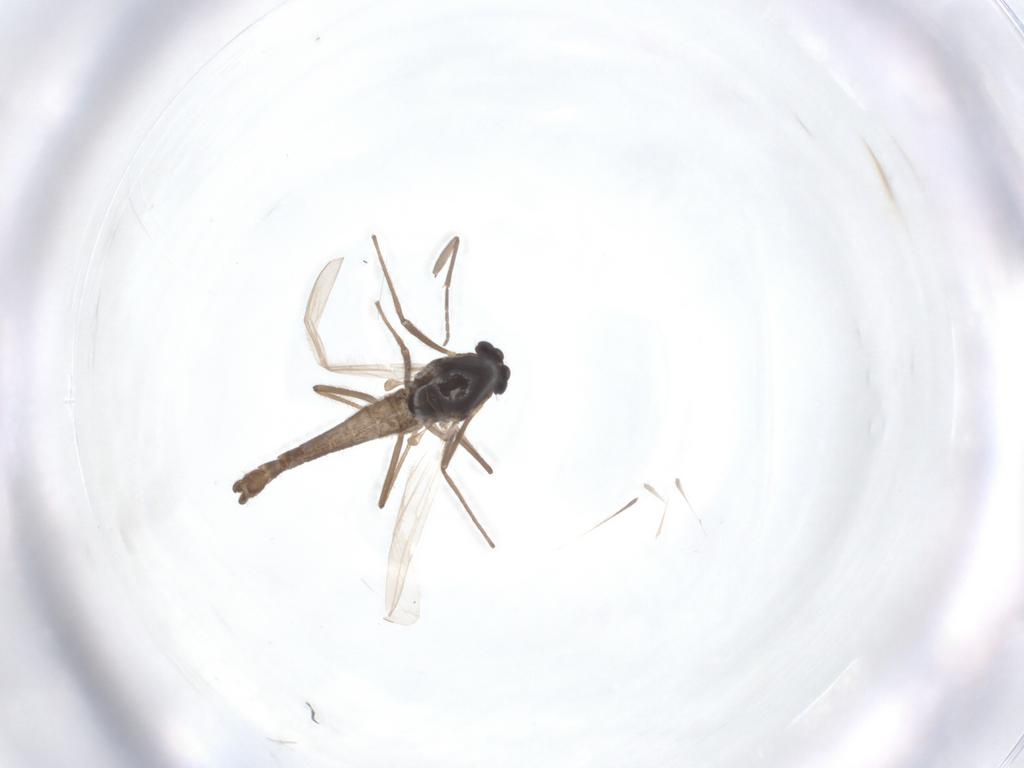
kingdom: Animalia
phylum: Arthropoda
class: Insecta
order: Diptera
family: Chironomidae
